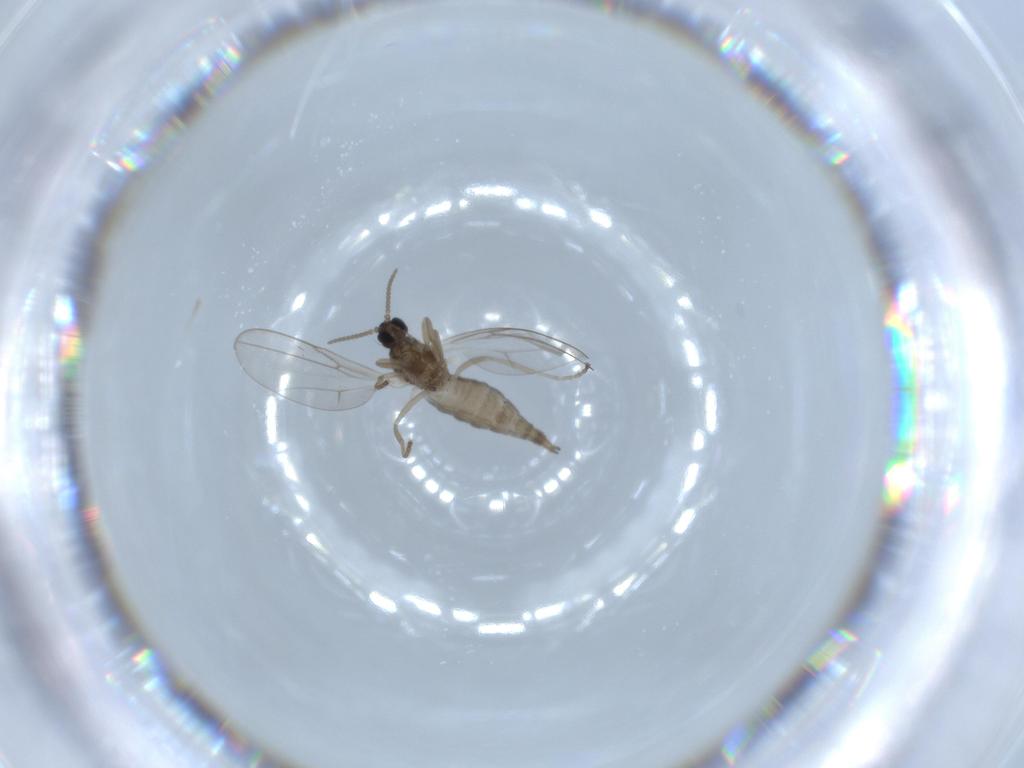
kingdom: Animalia
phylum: Arthropoda
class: Insecta
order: Diptera
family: Cecidomyiidae
